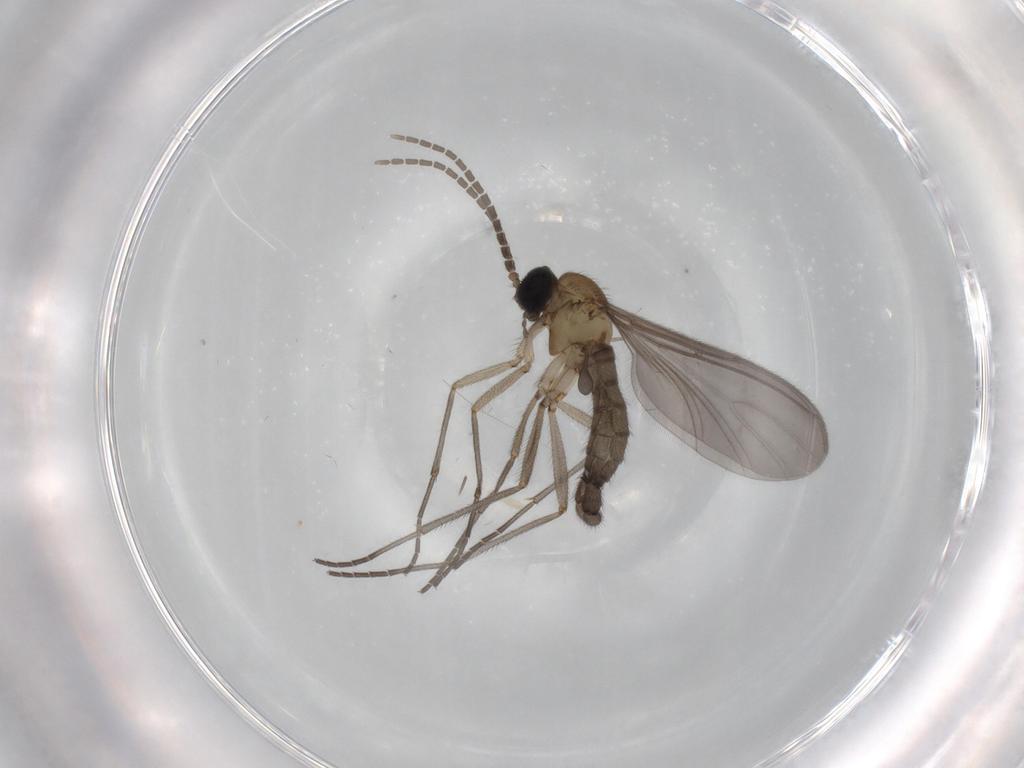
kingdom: Animalia
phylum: Arthropoda
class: Insecta
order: Diptera
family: Sciaridae
